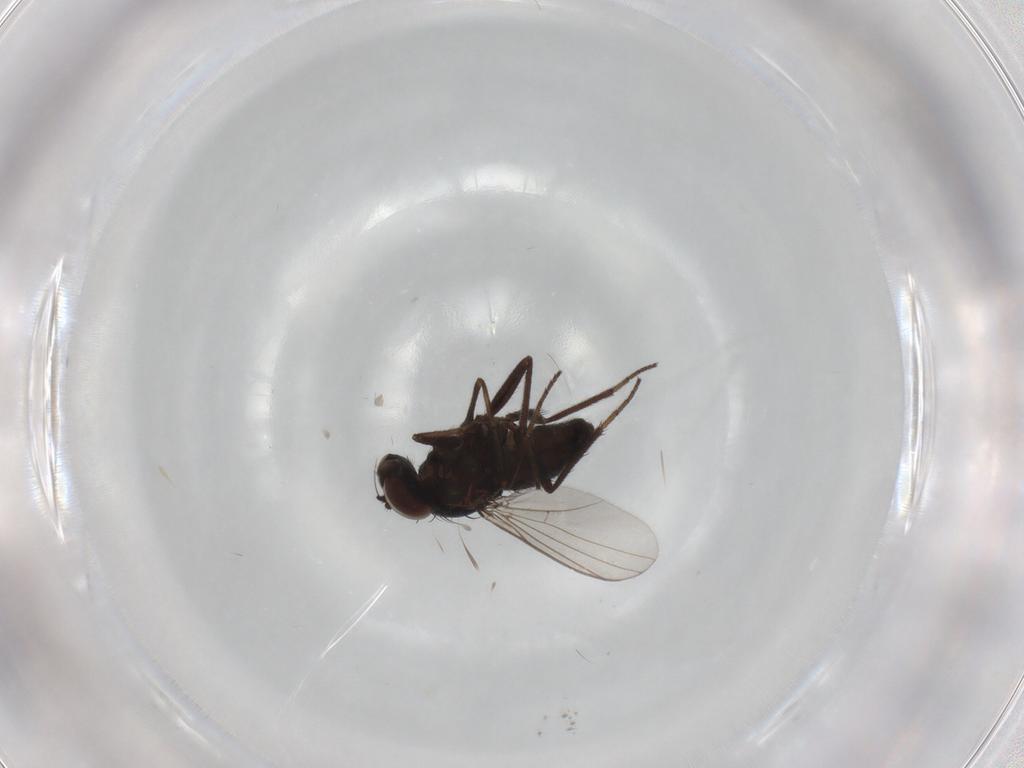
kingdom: Animalia
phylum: Arthropoda
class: Insecta
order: Diptera
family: Dolichopodidae
